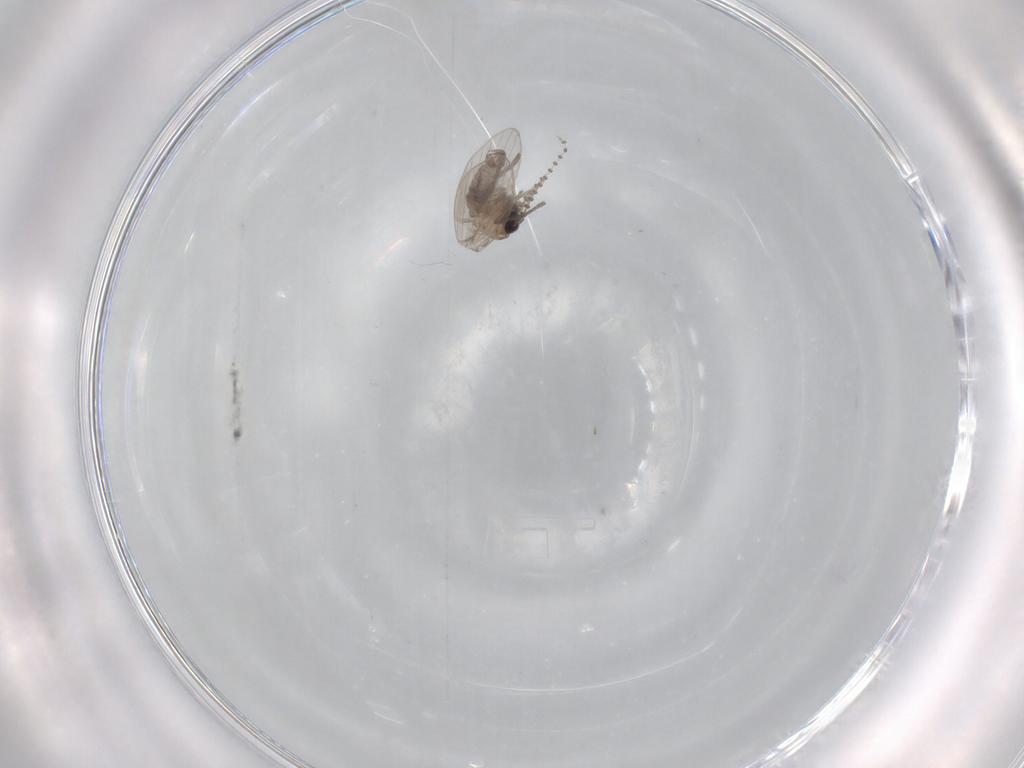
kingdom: Animalia
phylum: Arthropoda
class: Insecta
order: Diptera
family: Psychodidae
